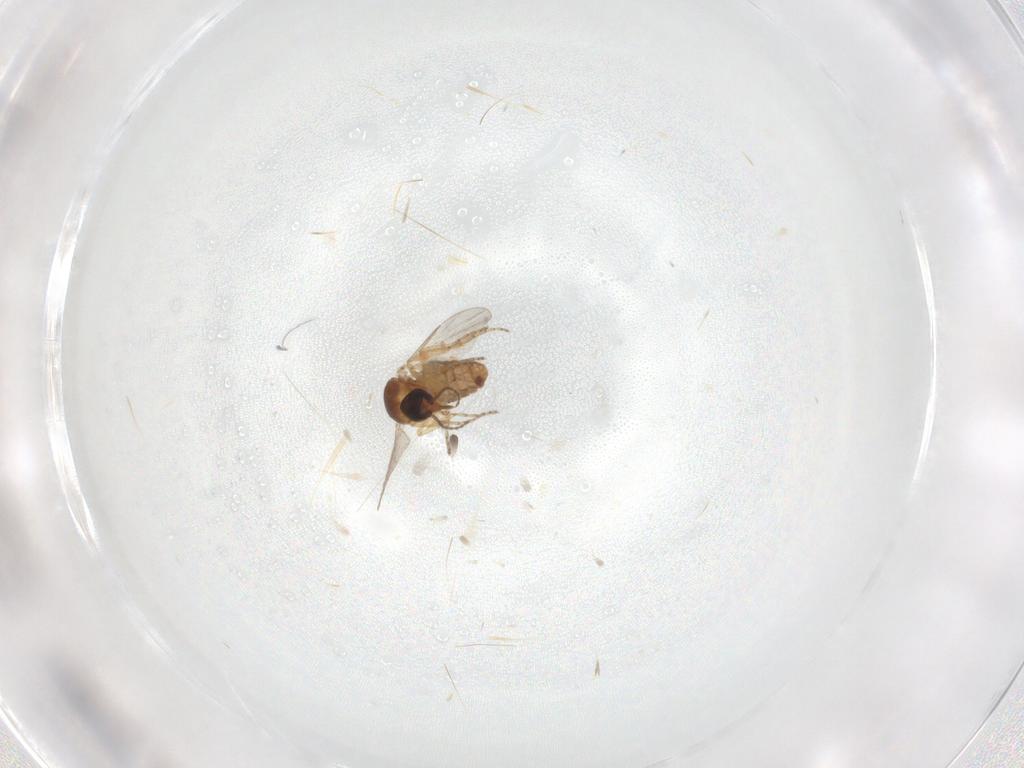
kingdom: Animalia
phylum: Arthropoda
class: Insecta
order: Diptera
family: Ceratopogonidae
